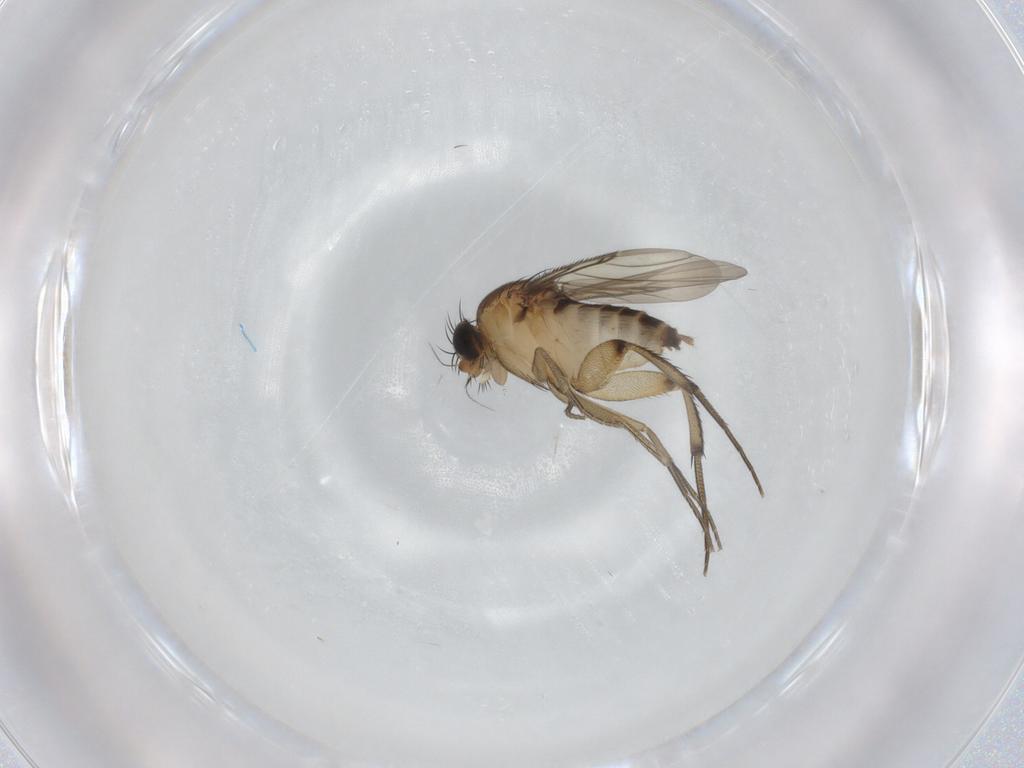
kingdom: Animalia
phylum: Arthropoda
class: Insecta
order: Diptera
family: Phoridae
